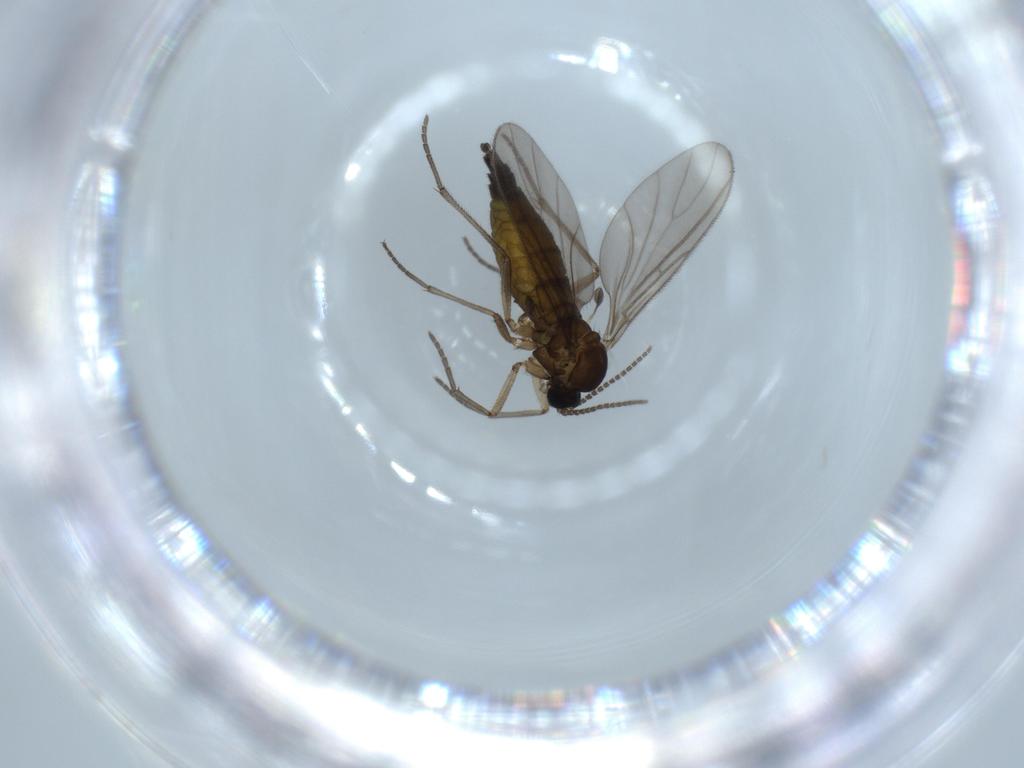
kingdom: Animalia
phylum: Arthropoda
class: Insecta
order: Diptera
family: Sciaridae
